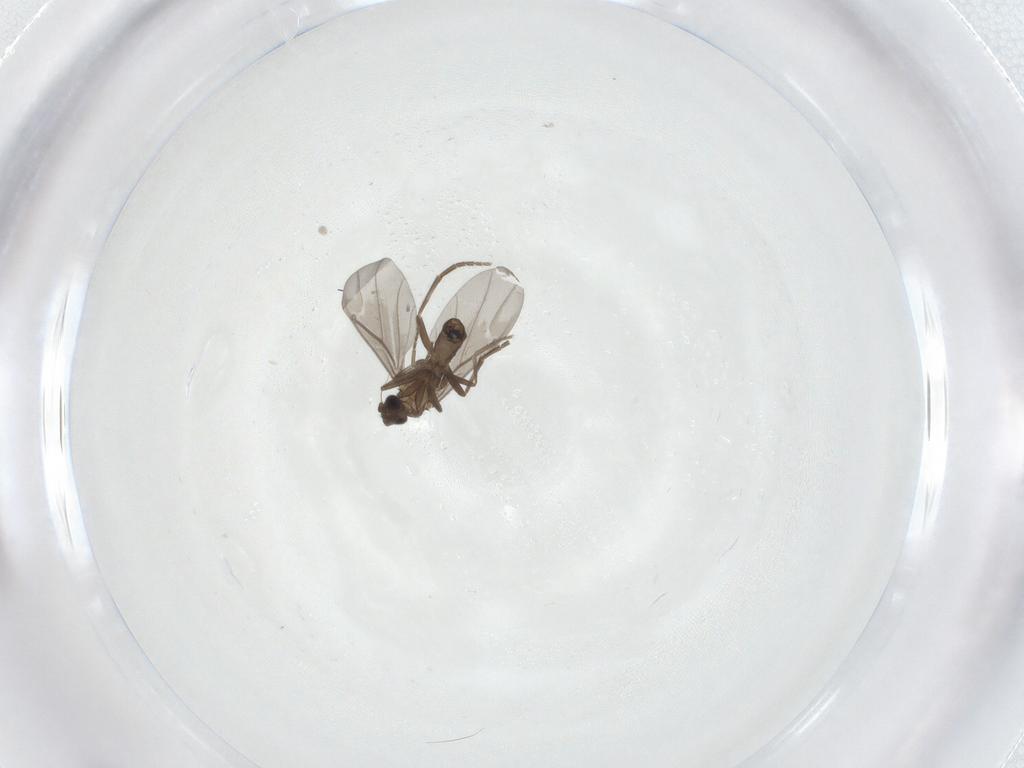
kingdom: Animalia
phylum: Arthropoda
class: Insecta
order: Diptera
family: Phoridae
